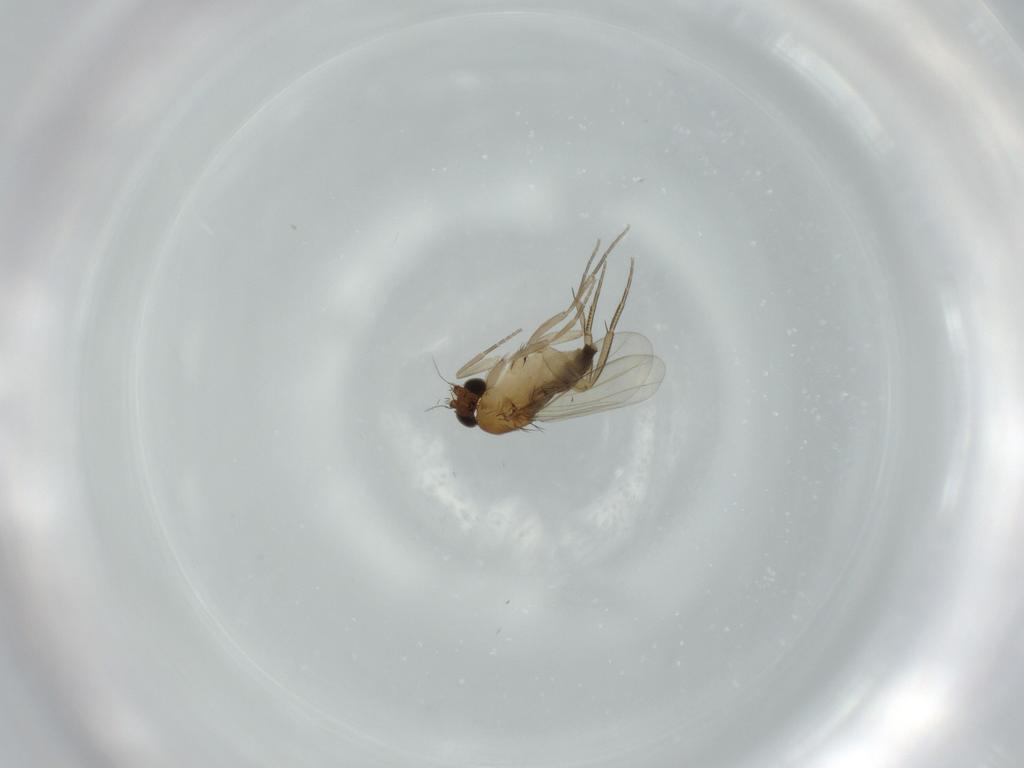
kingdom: Animalia
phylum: Arthropoda
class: Insecta
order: Diptera
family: Phoridae
